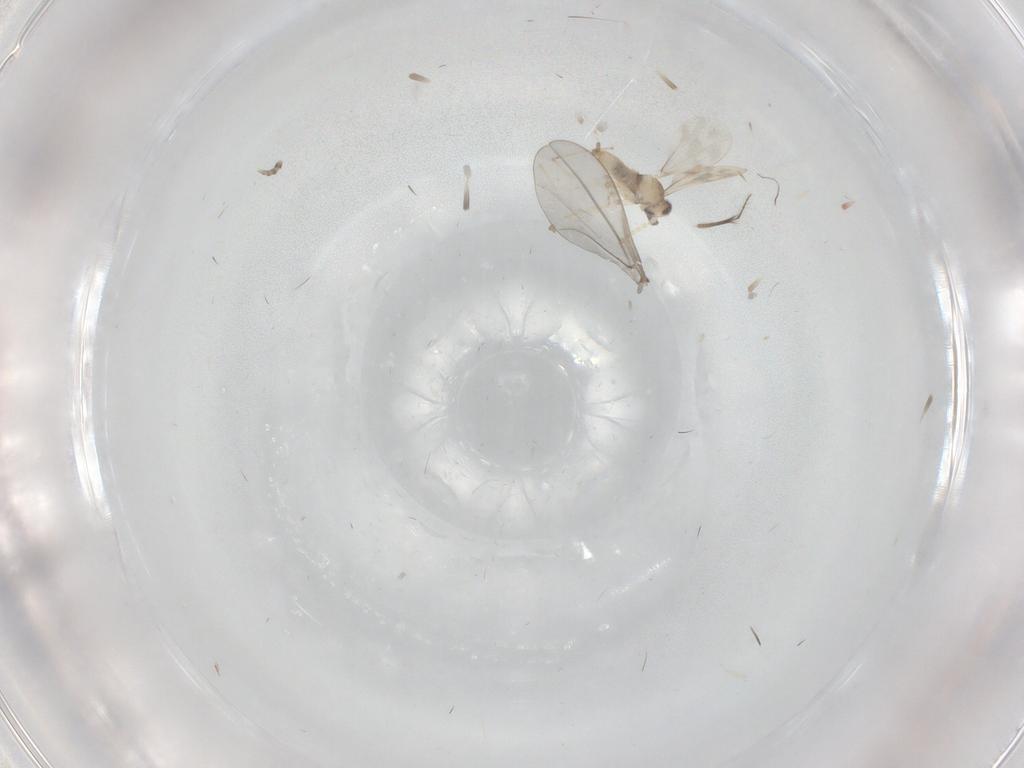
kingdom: Animalia
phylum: Arthropoda
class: Insecta
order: Diptera
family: Cecidomyiidae
